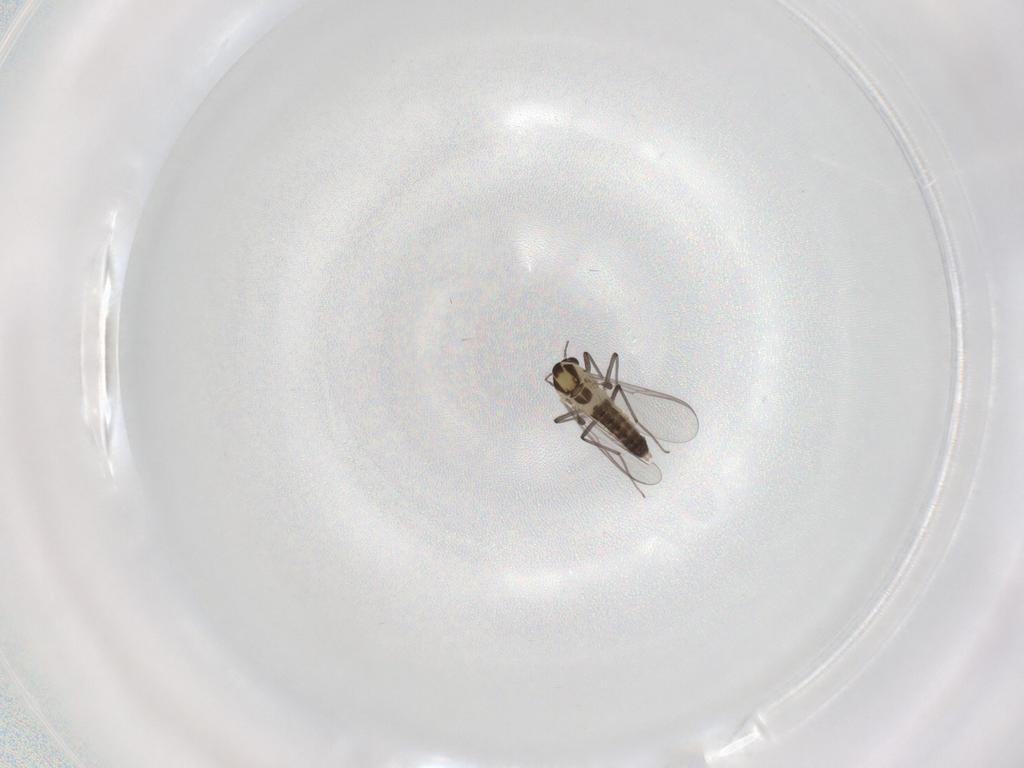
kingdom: Animalia
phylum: Arthropoda
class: Insecta
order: Diptera
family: Chironomidae
